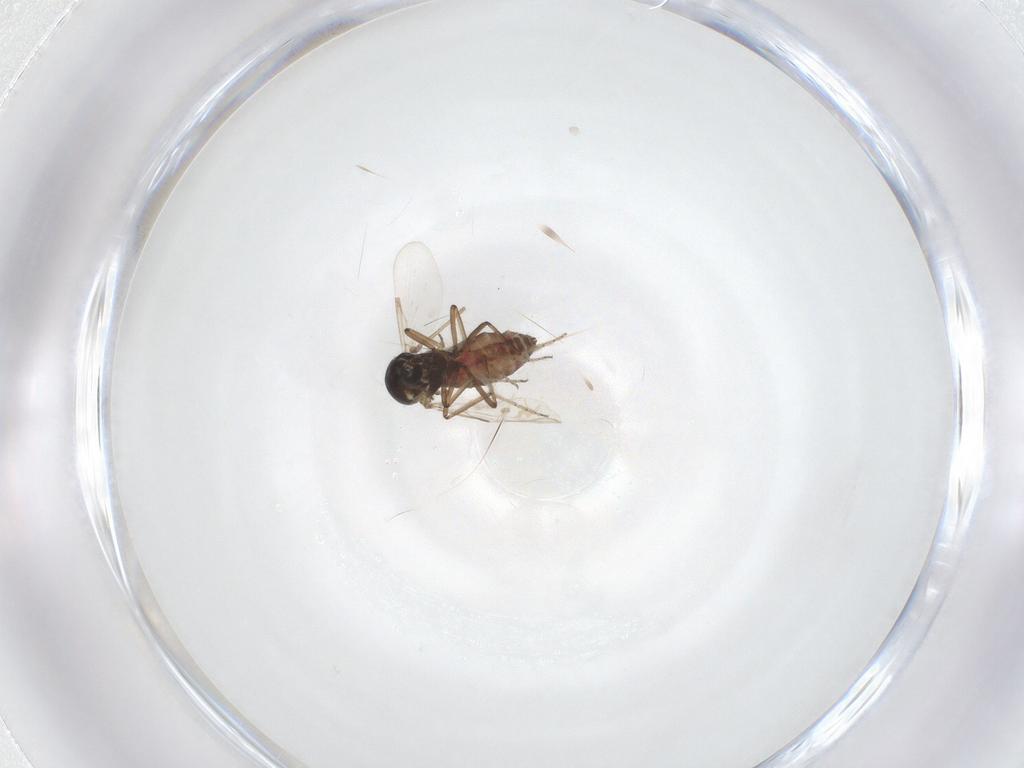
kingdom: Animalia
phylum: Arthropoda
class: Insecta
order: Diptera
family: Ceratopogonidae
